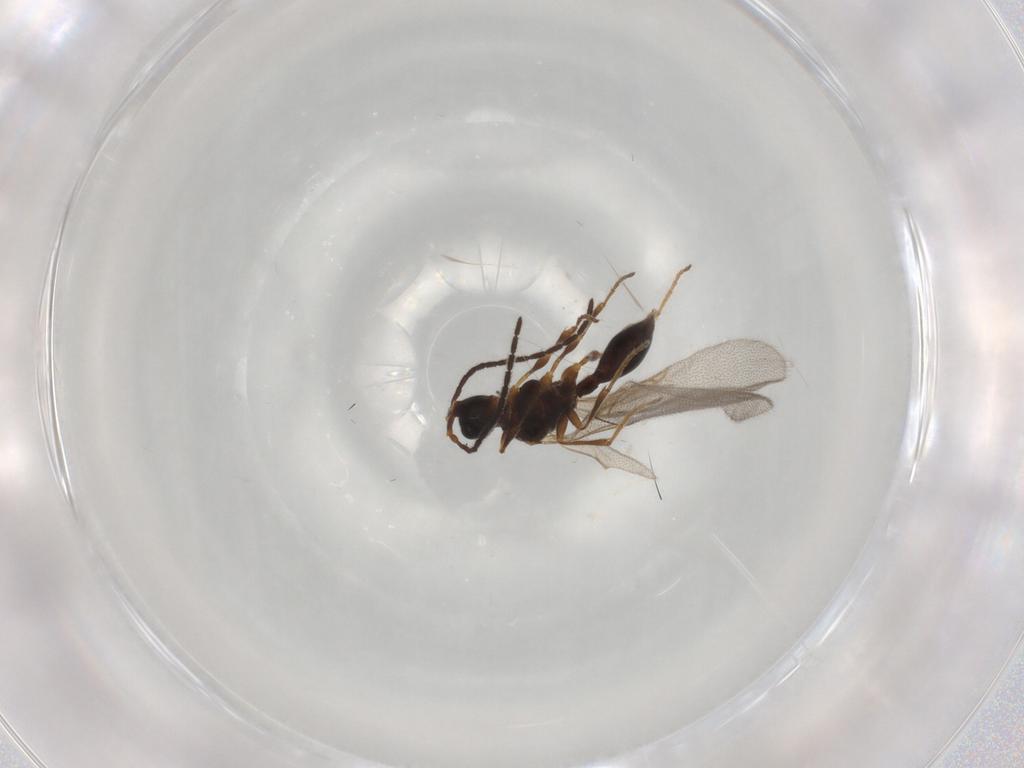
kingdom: Animalia
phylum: Arthropoda
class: Insecta
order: Hymenoptera
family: Diapriidae
